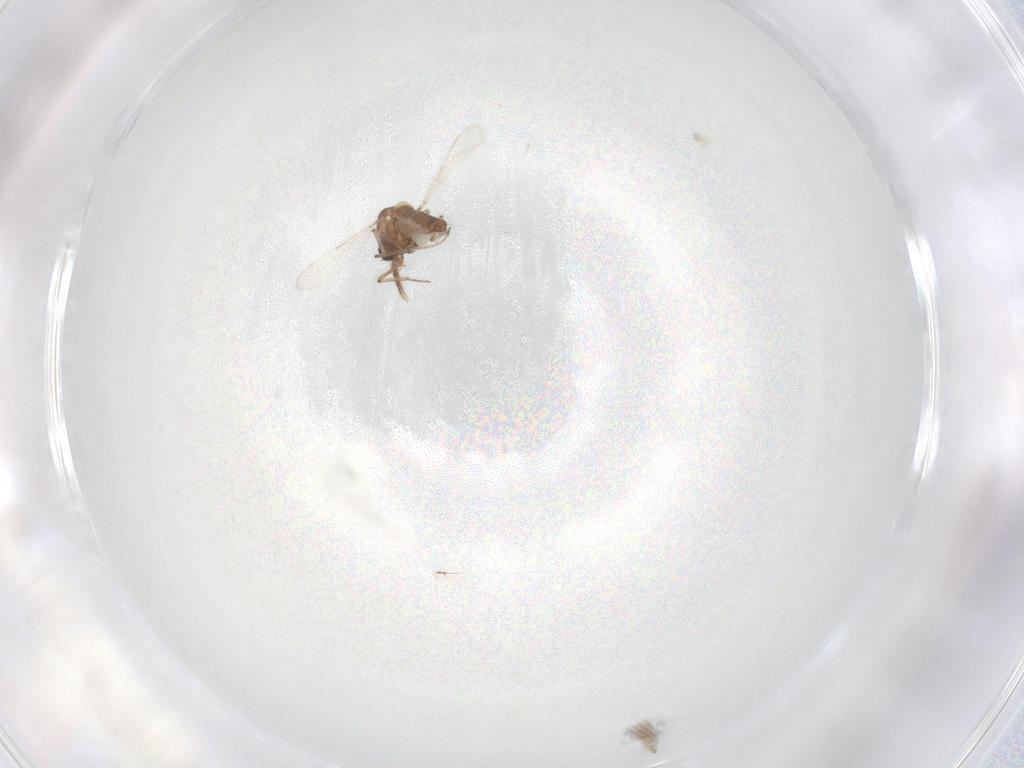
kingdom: Animalia
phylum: Arthropoda
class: Insecta
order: Diptera
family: Ceratopogonidae
